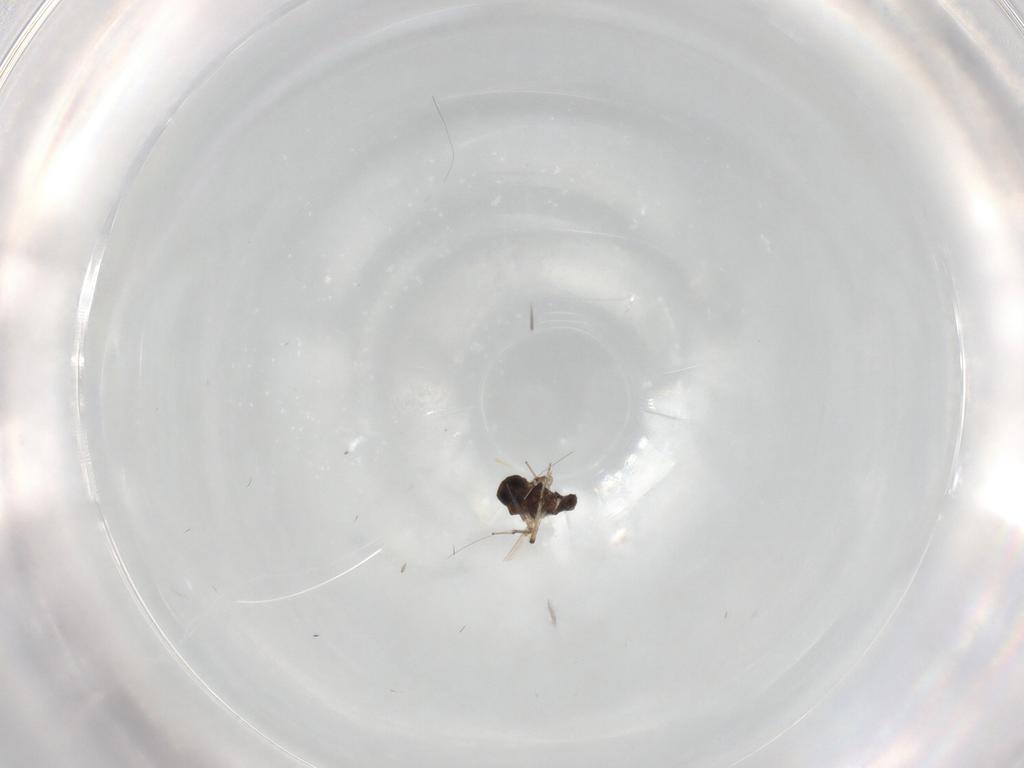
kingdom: Animalia
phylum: Arthropoda
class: Insecta
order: Diptera
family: Ceratopogonidae
